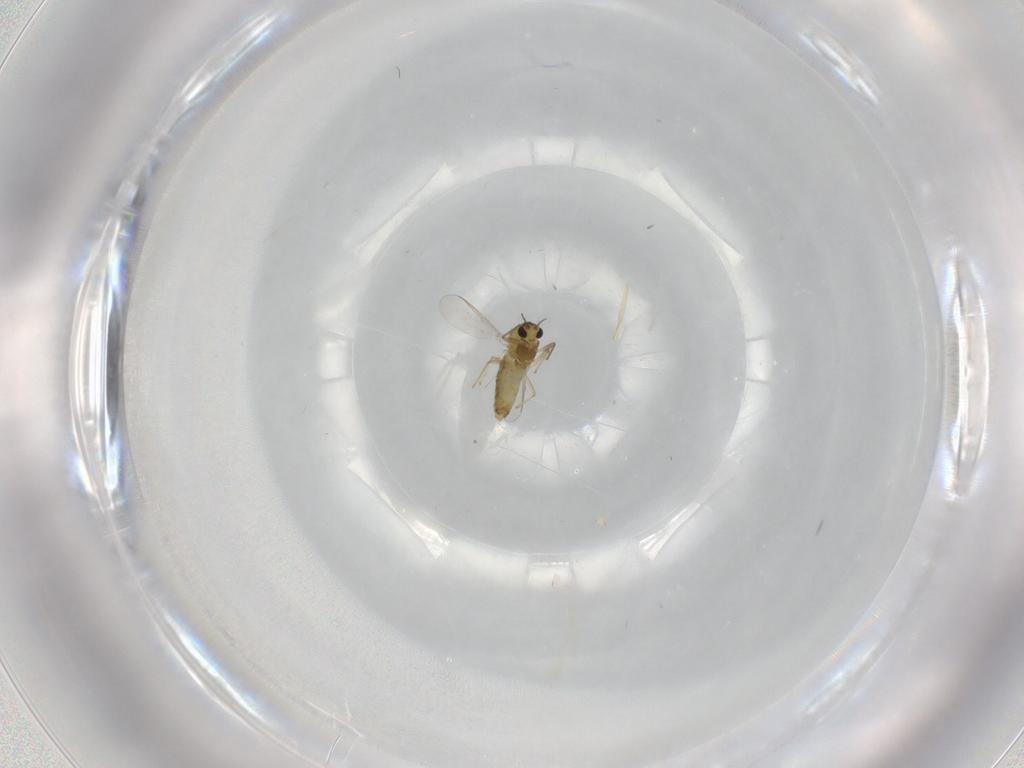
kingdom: Animalia
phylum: Arthropoda
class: Insecta
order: Diptera
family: Chironomidae
